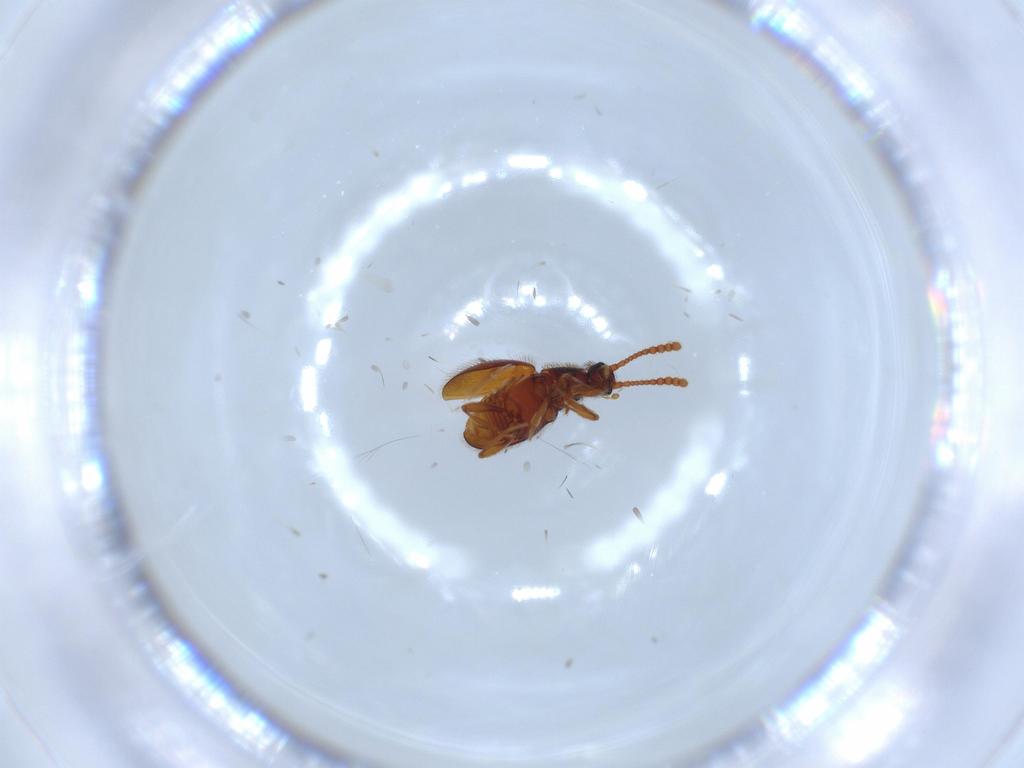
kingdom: Animalia
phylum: Arthropoda
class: Insecta
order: Coleoptera
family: Staphylinidae
